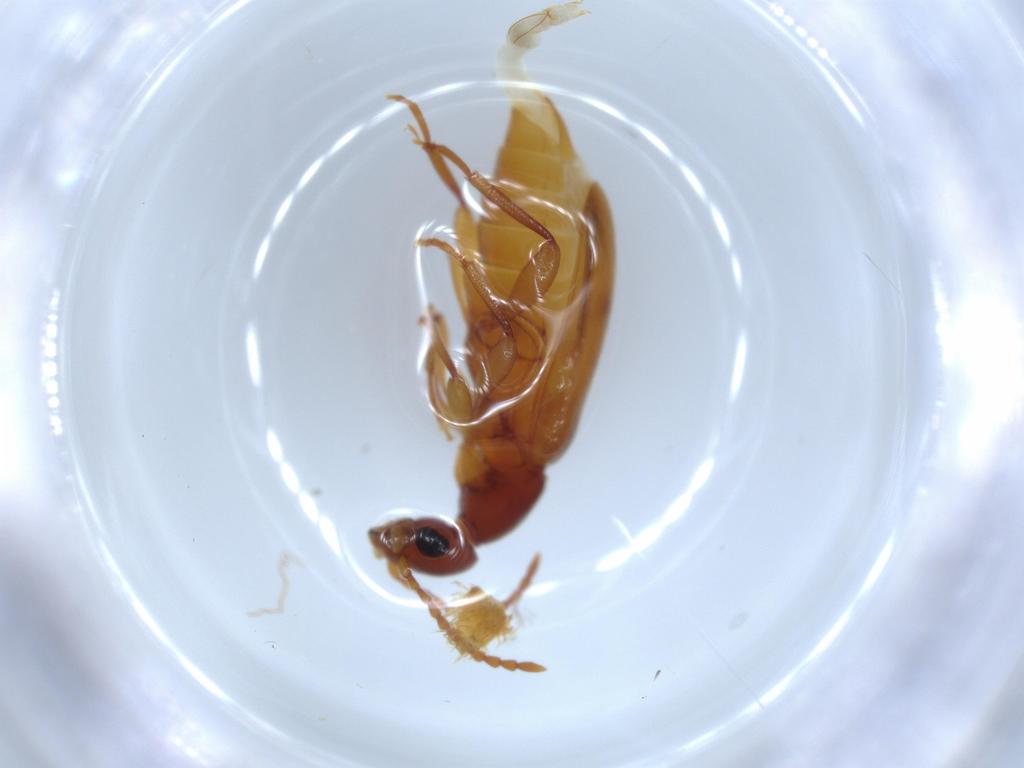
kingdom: Animalia
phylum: Arthropoda
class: Insecta
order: Coleoptera
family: Anthicidae
